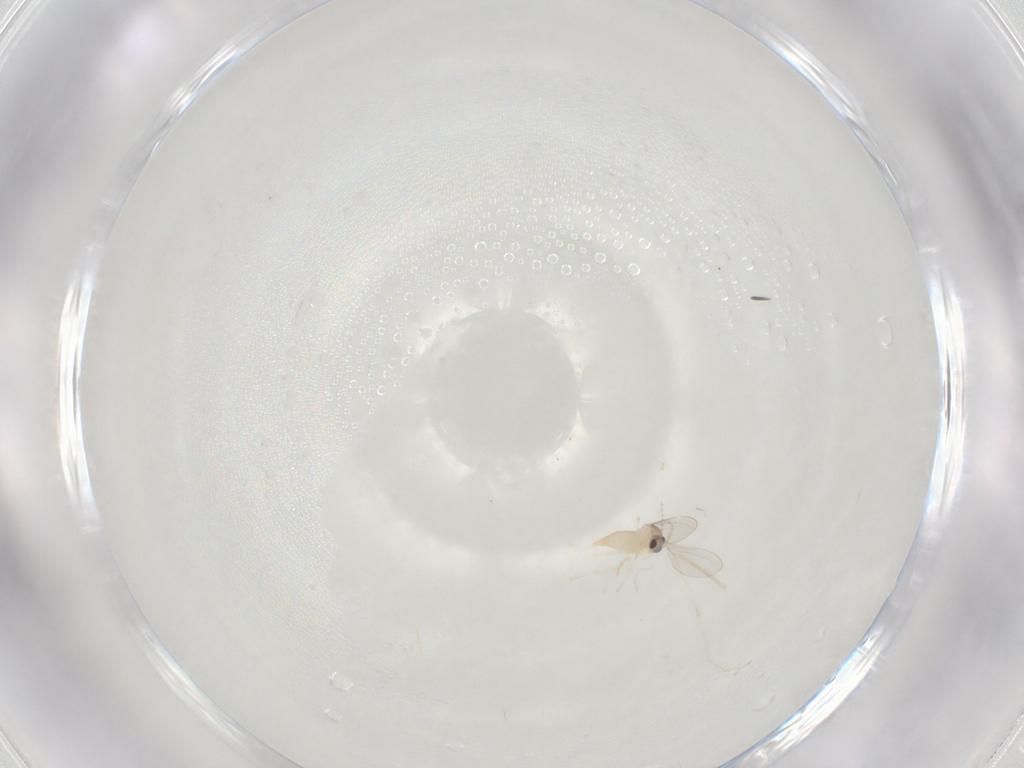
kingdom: Animalia
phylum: Arthropoda
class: Insecta
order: Diptera
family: Cecidomyiidae
